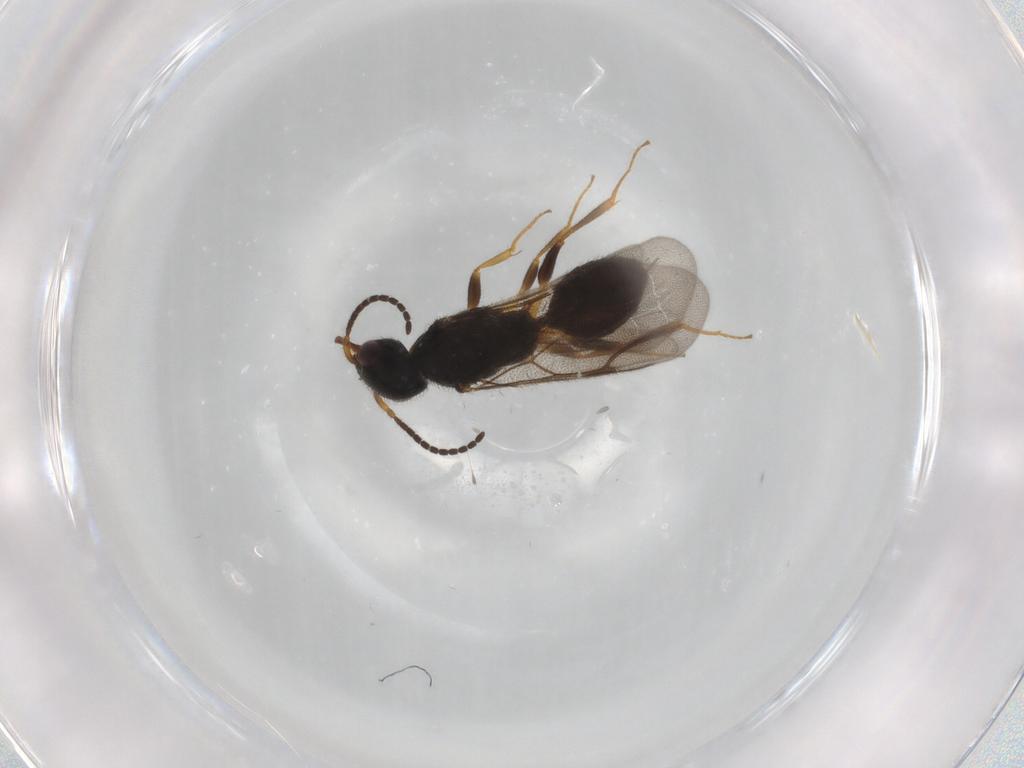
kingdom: Animalia
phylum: Arthropoda
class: Insecta
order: Hymenoptera
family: Bethylidae
